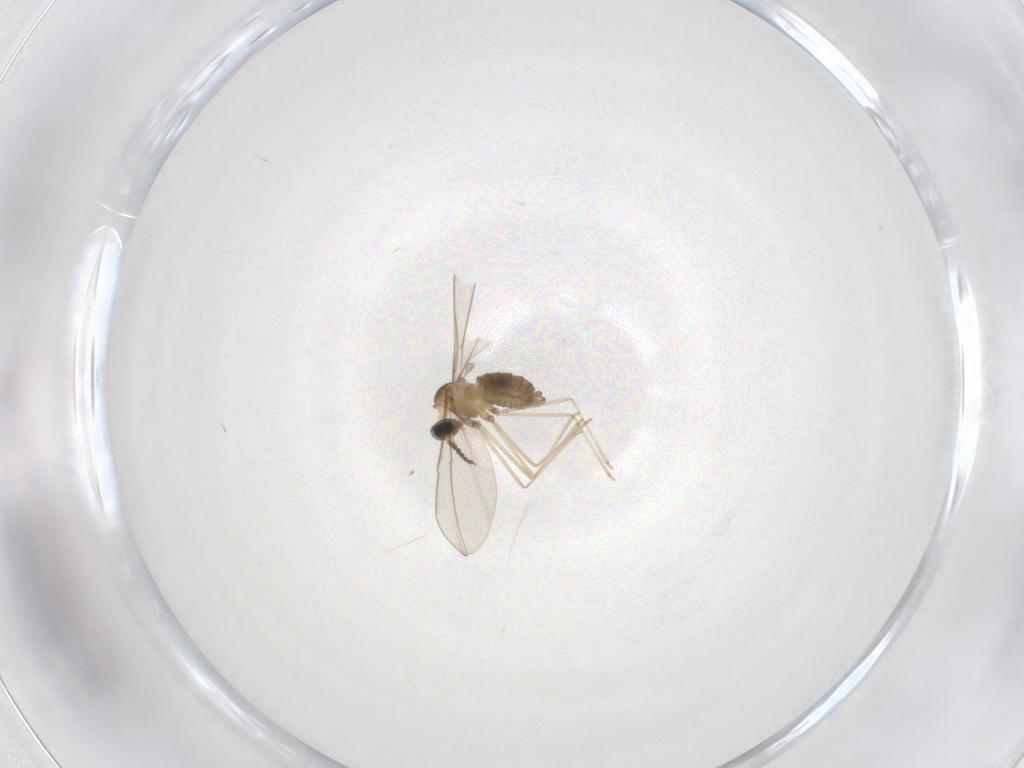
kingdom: Animalia
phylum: Arthropoda
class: Insecta
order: Diptera
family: Cecidomyiidae
